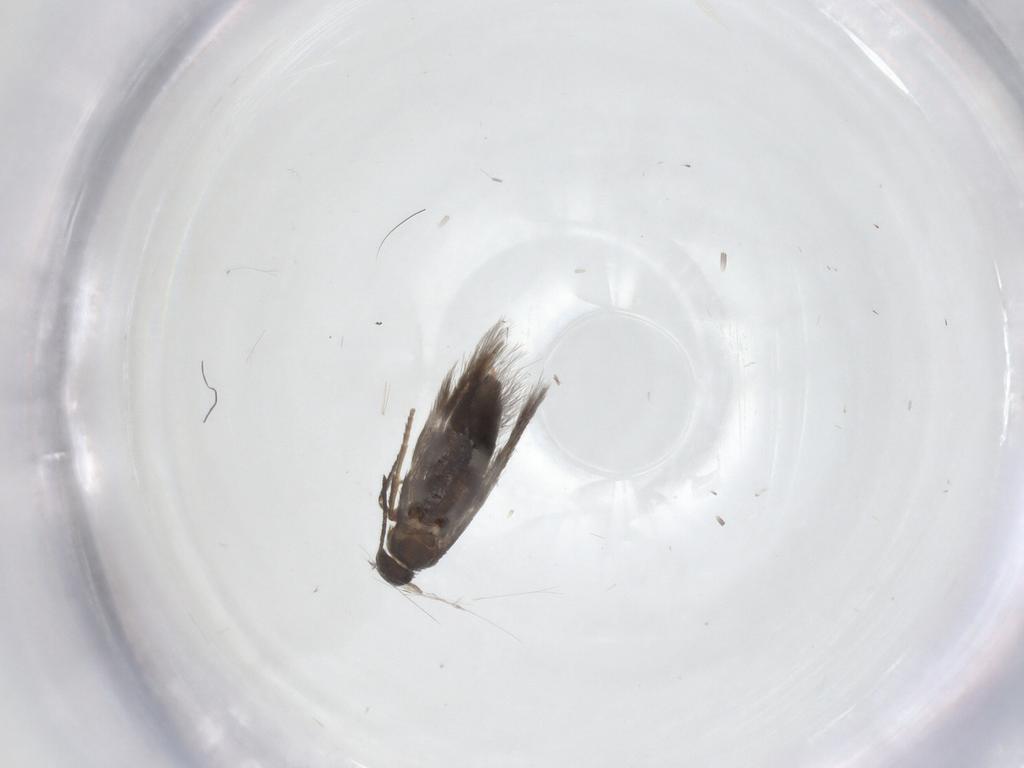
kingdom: Animalia
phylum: Arthropoda
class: Insecta
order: Lepidoptera
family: Heliozelidae
